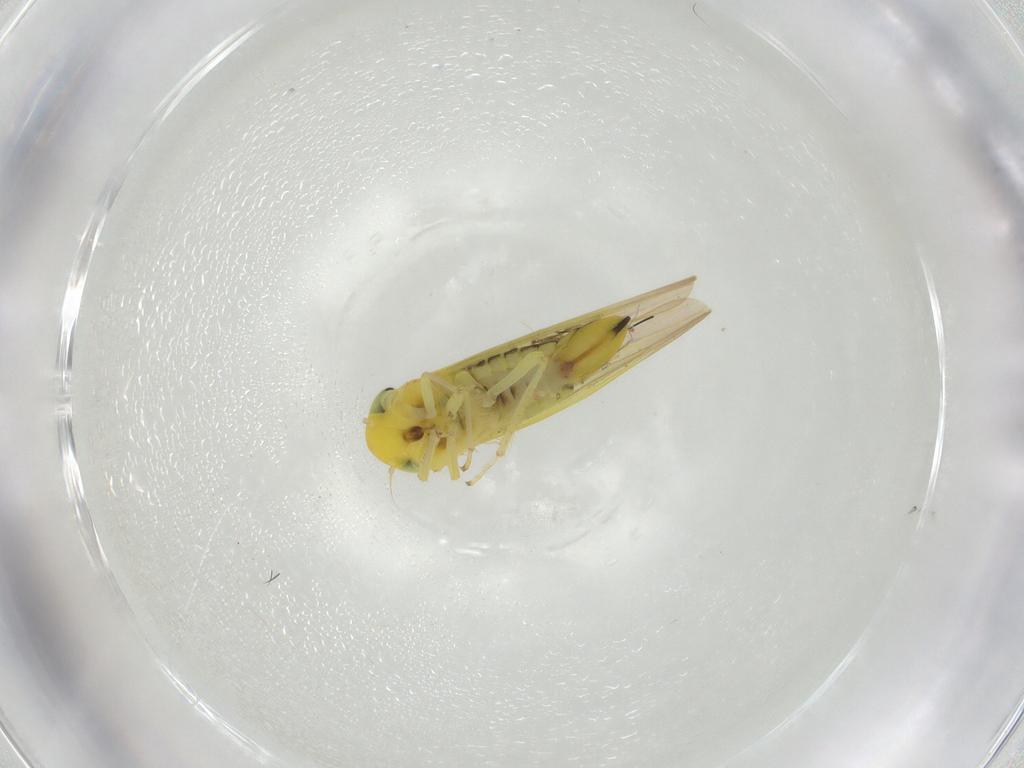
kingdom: Animalia
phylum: Arthropoda
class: Insecta
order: Hemiptera
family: Cicadellidae
